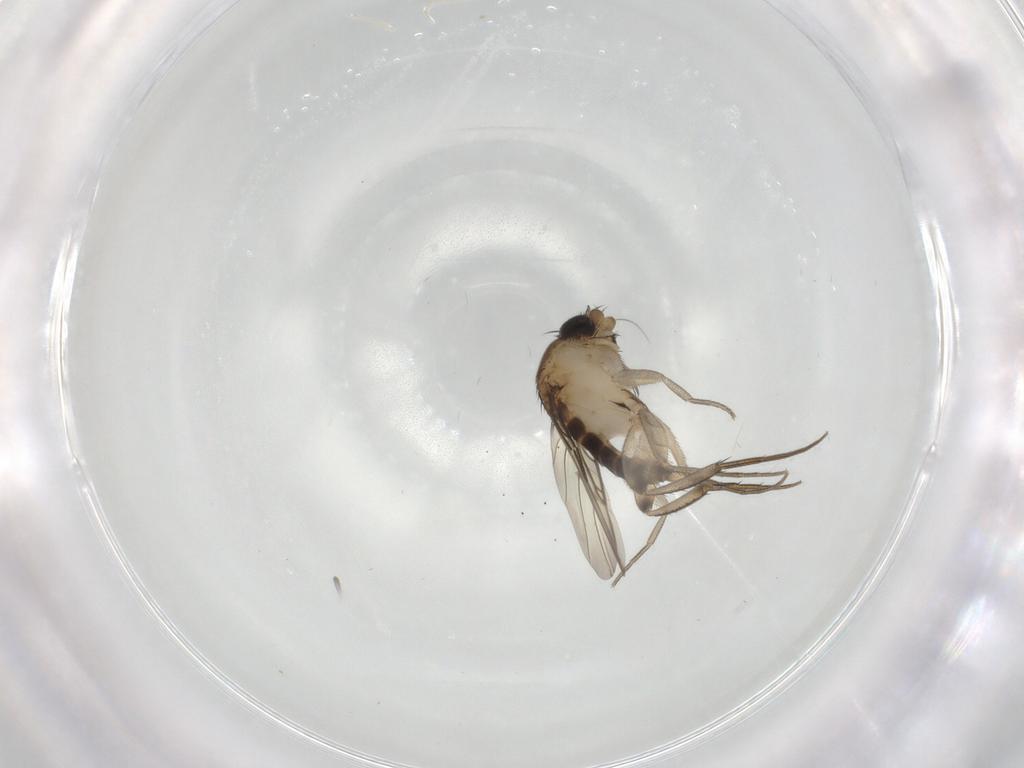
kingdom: Animalia
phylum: Arthropoda
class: Insecta
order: Diptera
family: Phoridae
